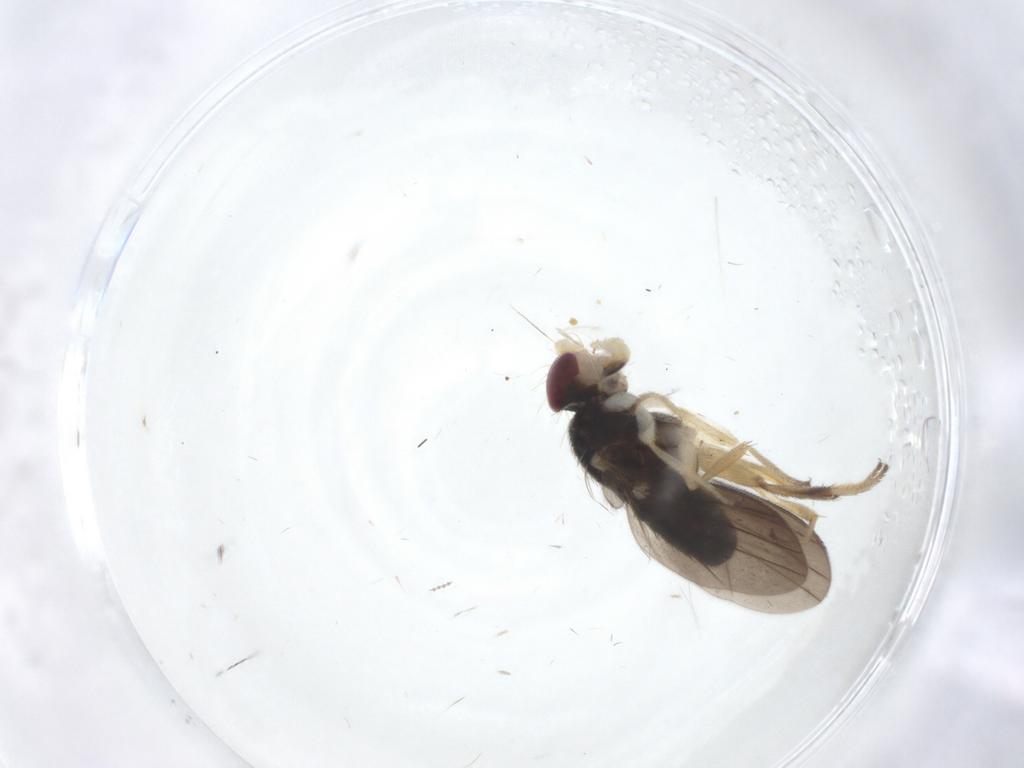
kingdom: Animalia
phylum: Arthropoda
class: Insecta
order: Diptera
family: Clusiidae
